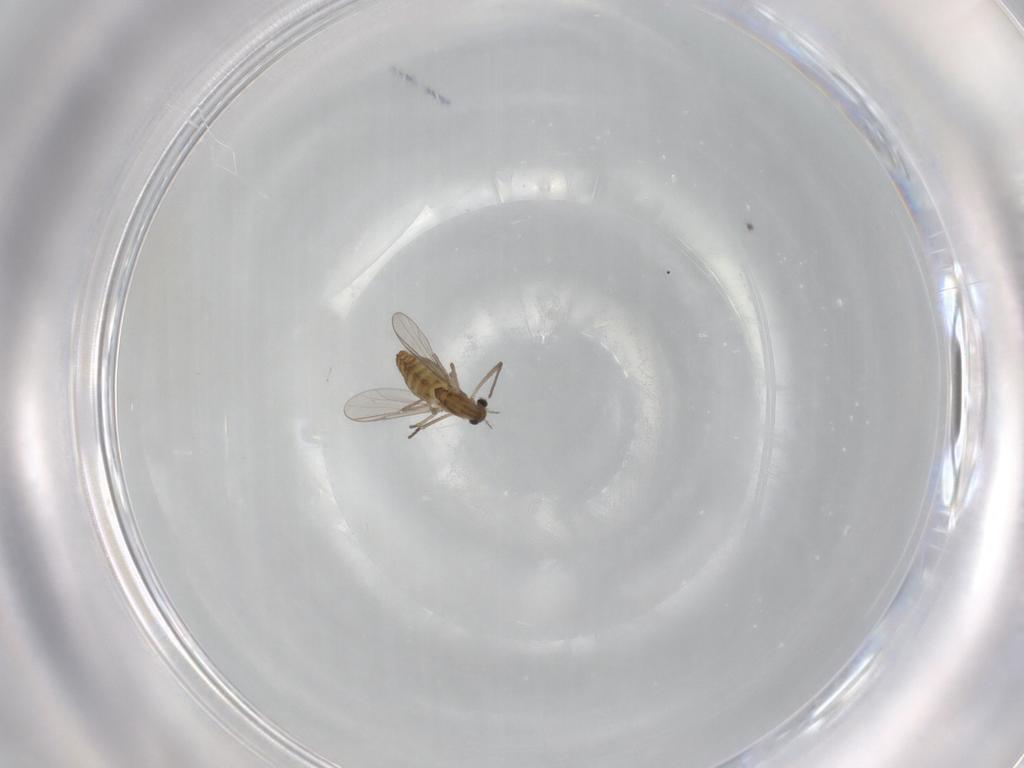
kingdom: Animalia
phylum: Arthropoda
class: Insecta
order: Diptera
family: Chironomidae
